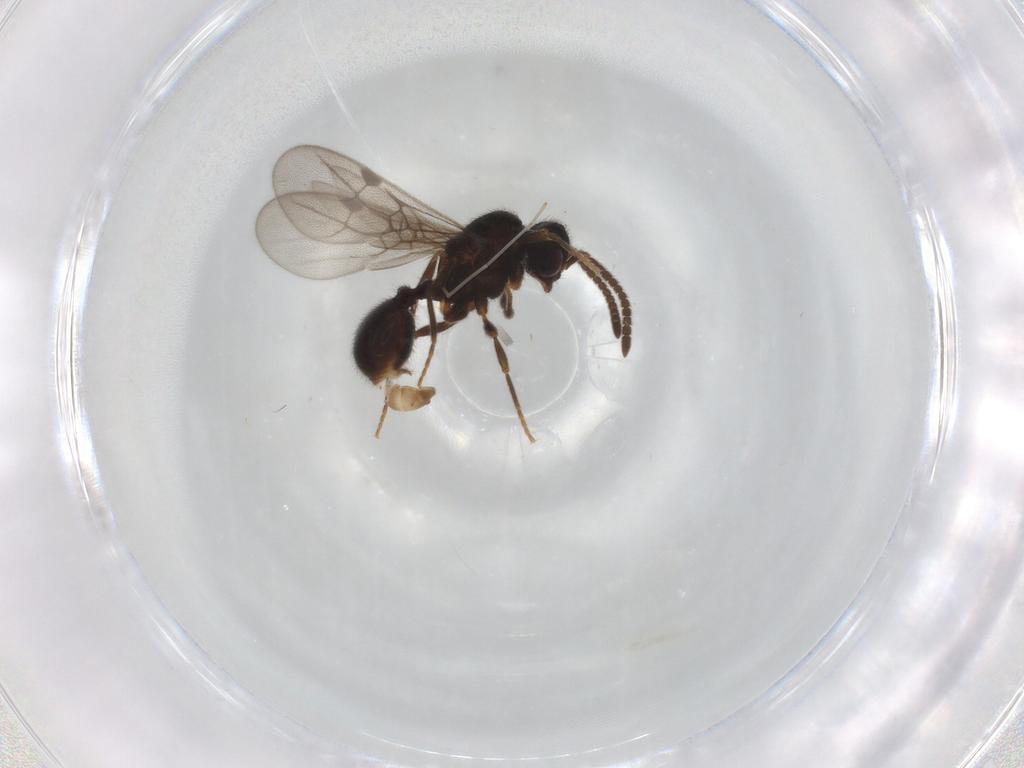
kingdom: Animalia
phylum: Arthropoda
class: Insecta
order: Hymenoptera
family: Formicidae
